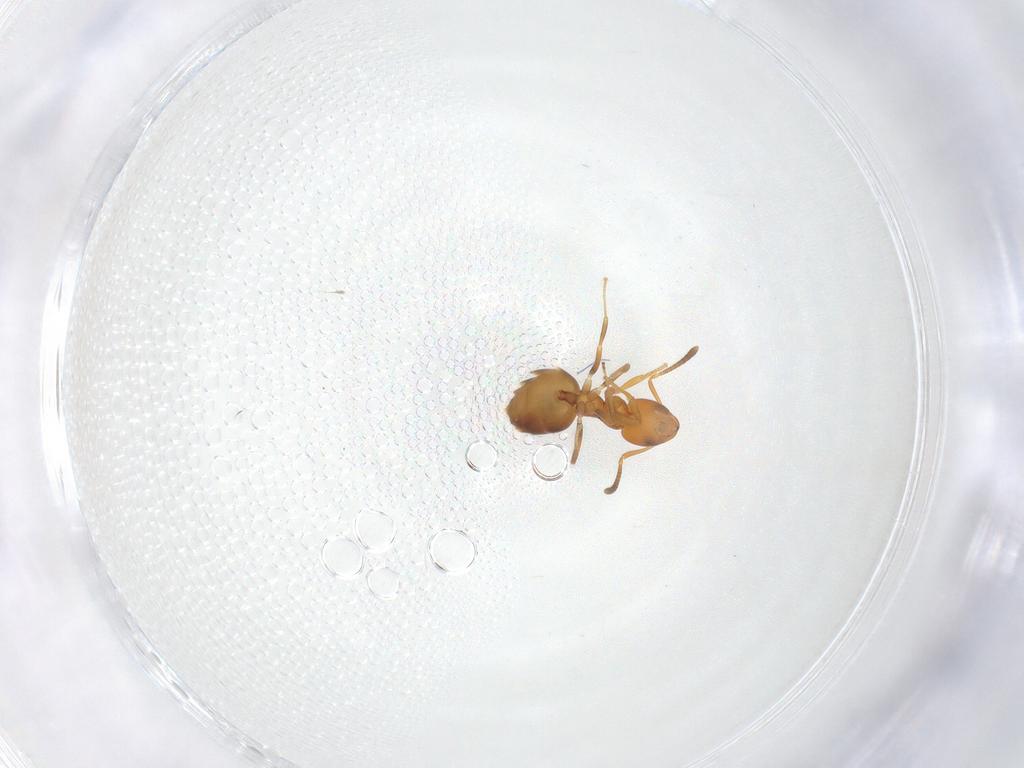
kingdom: Animalia
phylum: Arthropoda
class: Insecta
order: Hymenoptera
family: Formicidae
